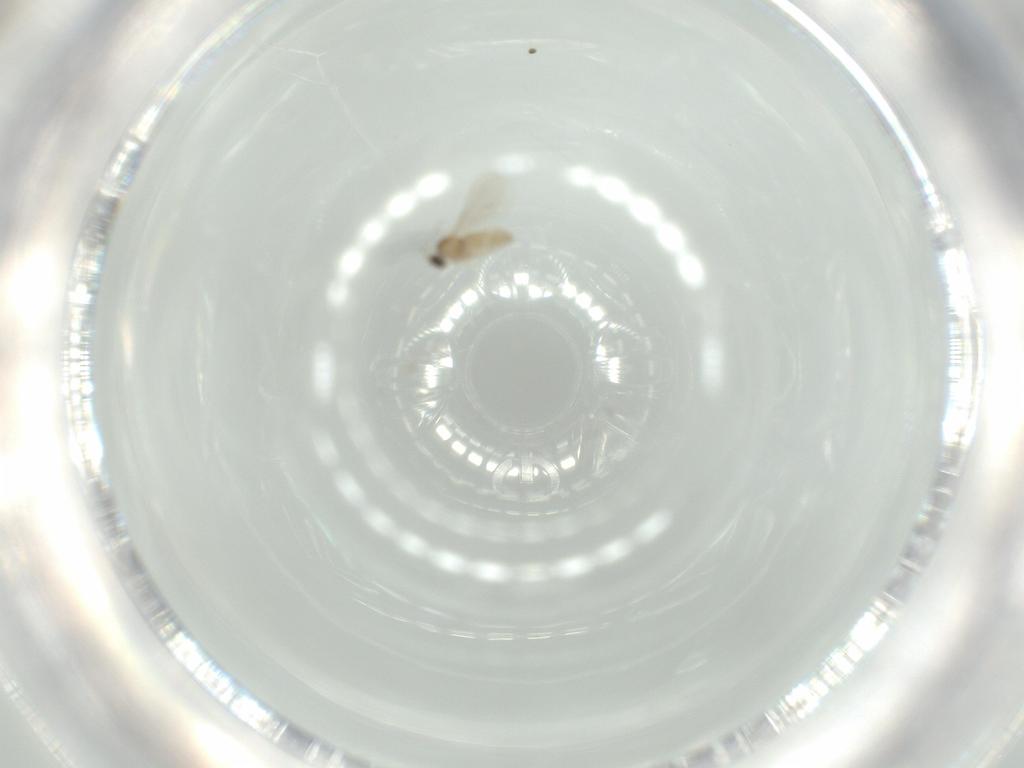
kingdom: Animalia
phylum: Arthropoda
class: Insecta
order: Diptera
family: Cecidomyiidae
